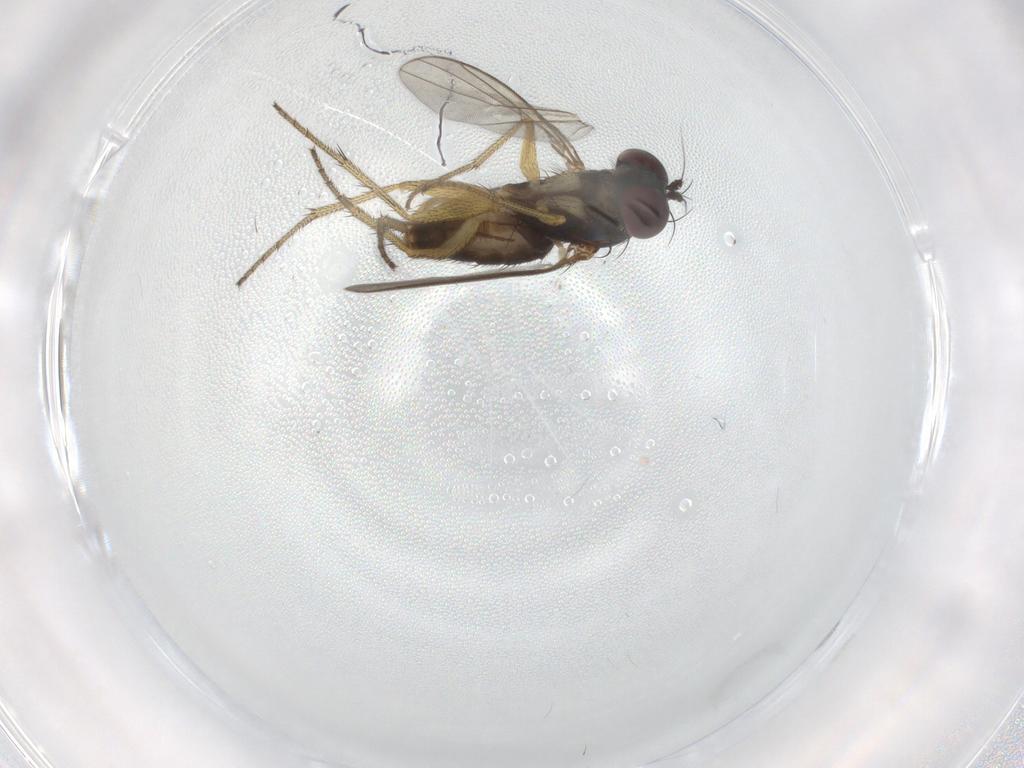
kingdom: Animalia
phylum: Arthropoda
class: Insecta
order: Diptera
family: Dolichopodidae
